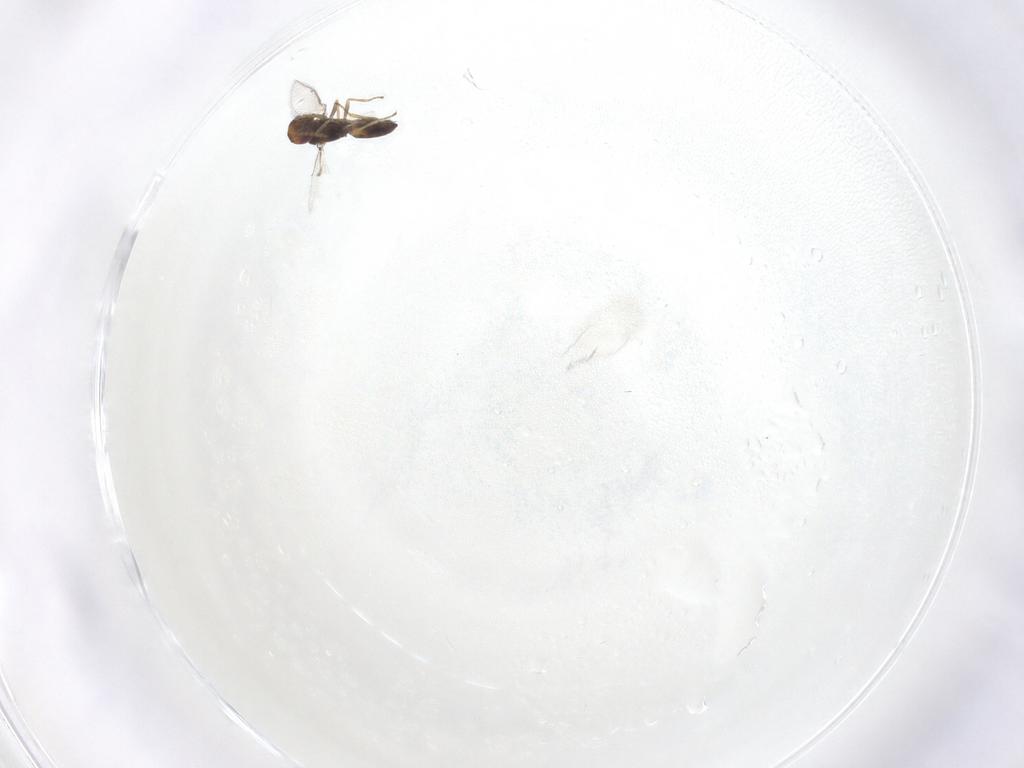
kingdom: Animalia
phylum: Arthropoda
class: Insecta
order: Hymenoptera
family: Eulophidae
